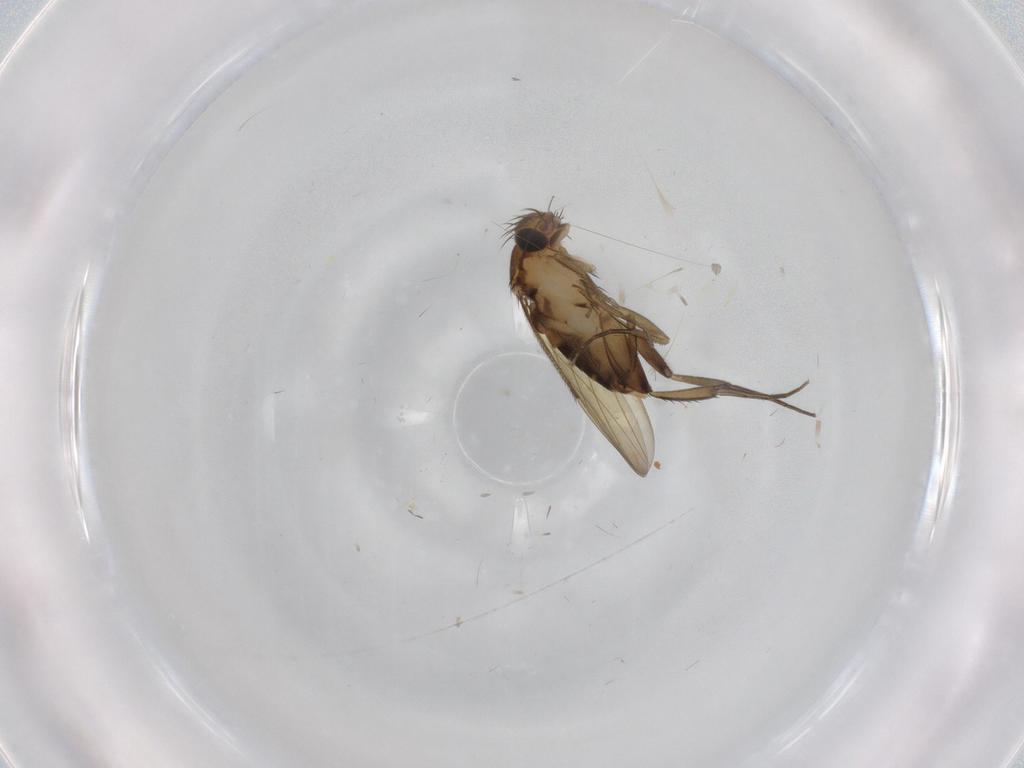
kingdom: Animalia
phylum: Arthropoda
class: Insecta
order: Diptera
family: Phoridae
